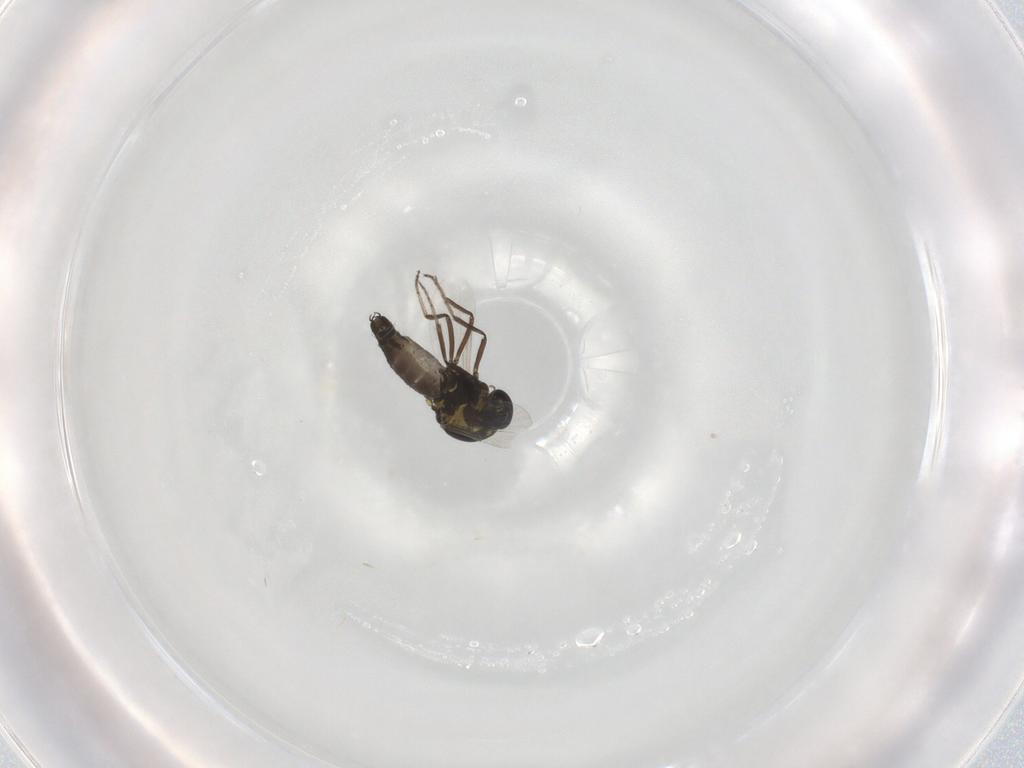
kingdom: Animalia
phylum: Arthropoda
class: Insecta
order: Diptera
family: Ceratopogonidae
